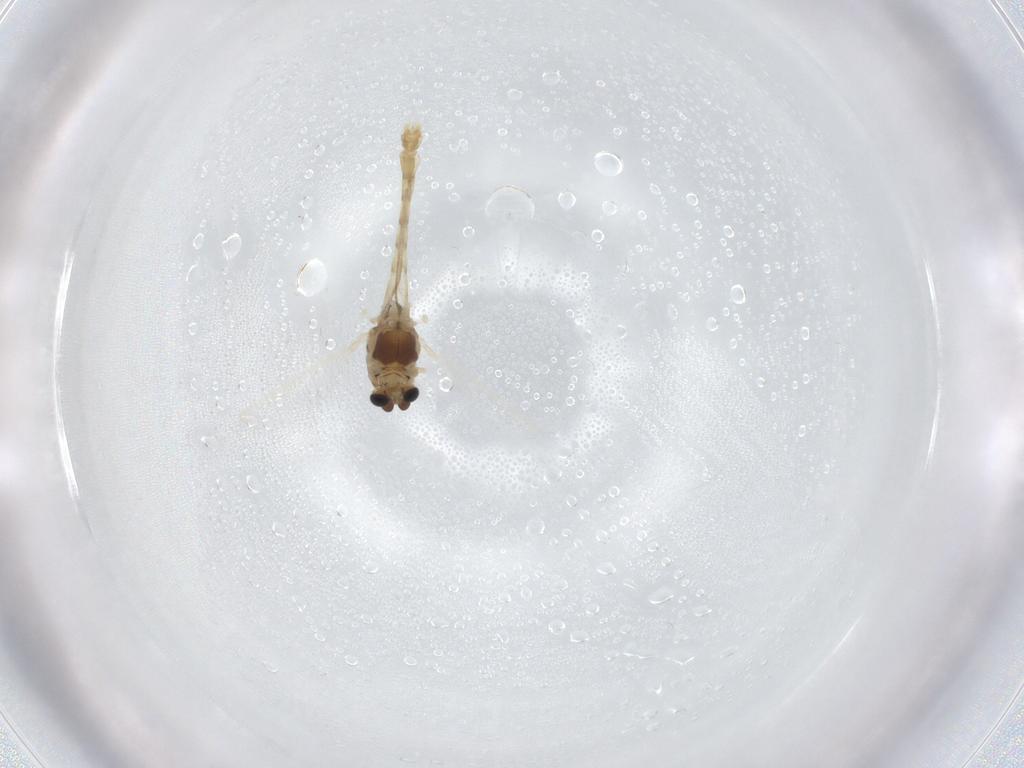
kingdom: Animalia
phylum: Arthropoda
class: Insecta
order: Diptera
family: Chironomidae
